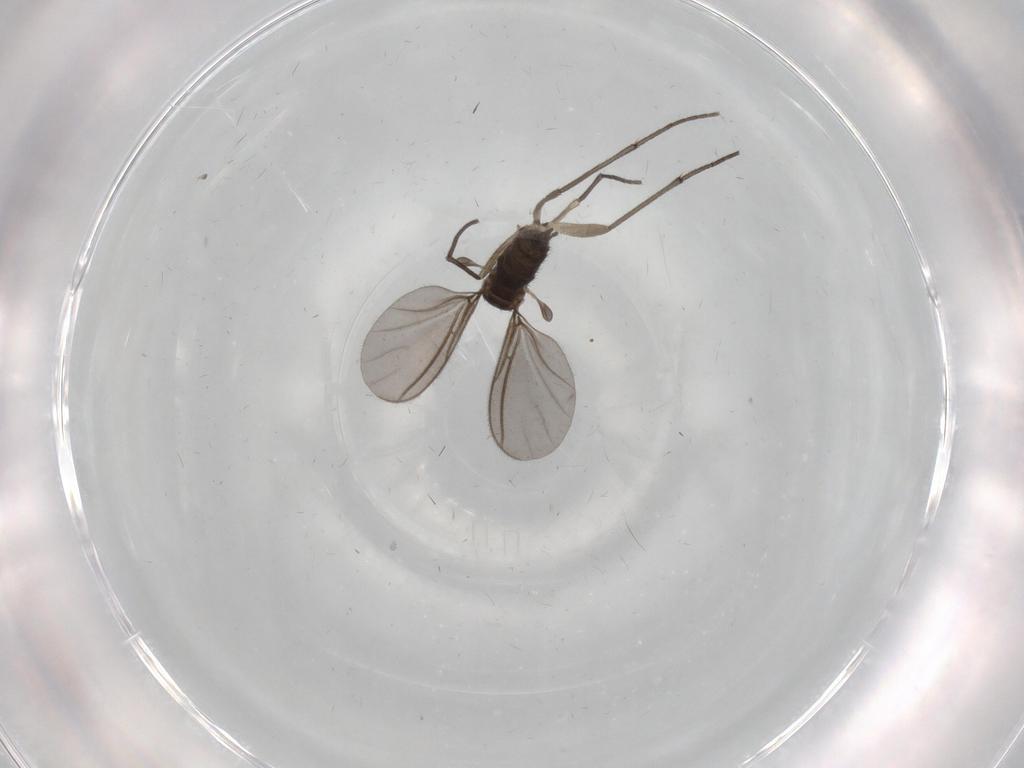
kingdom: Animalia
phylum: Arthropoda
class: Insecta
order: Diptera
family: Sciaridae
